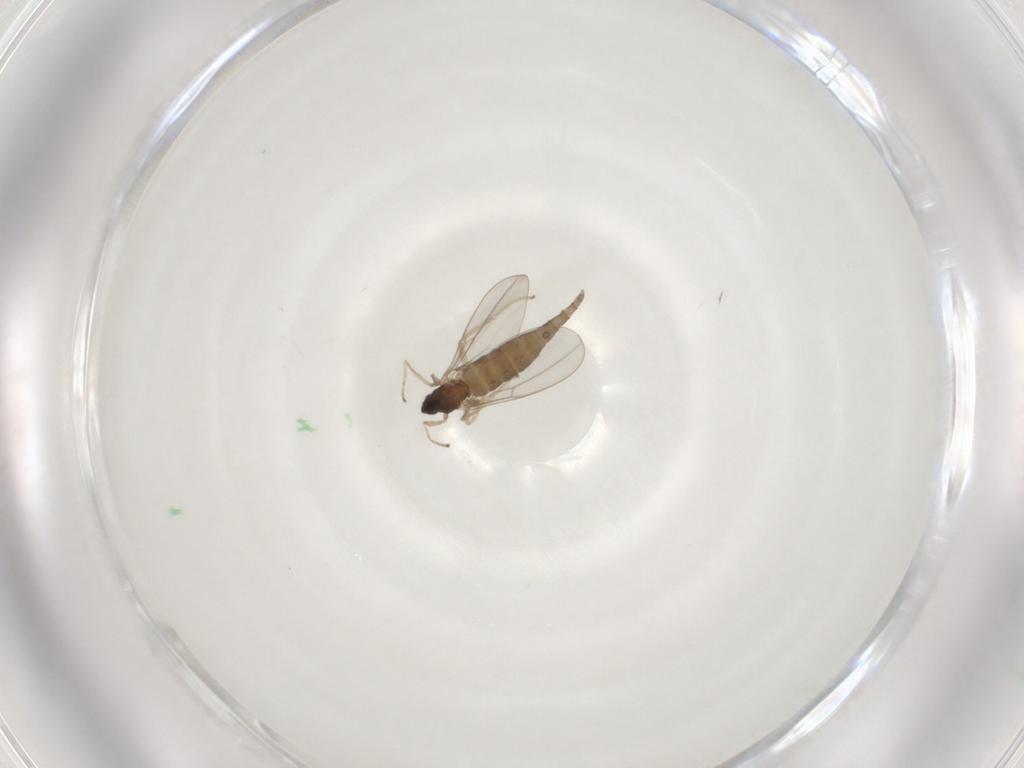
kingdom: Animalia
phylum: Arthropoda
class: Insecta
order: Diptera
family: Cecidomyiidae
